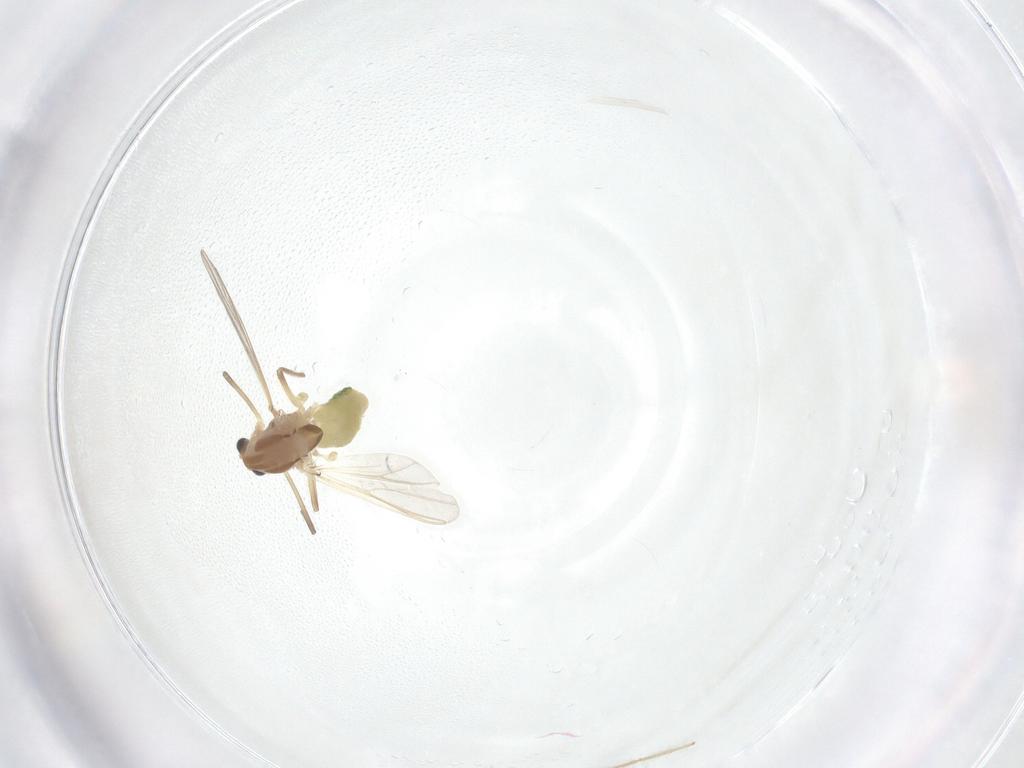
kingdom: Animalia
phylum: Arthropoda
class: Insecta
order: Diptera
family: Chironomidae
